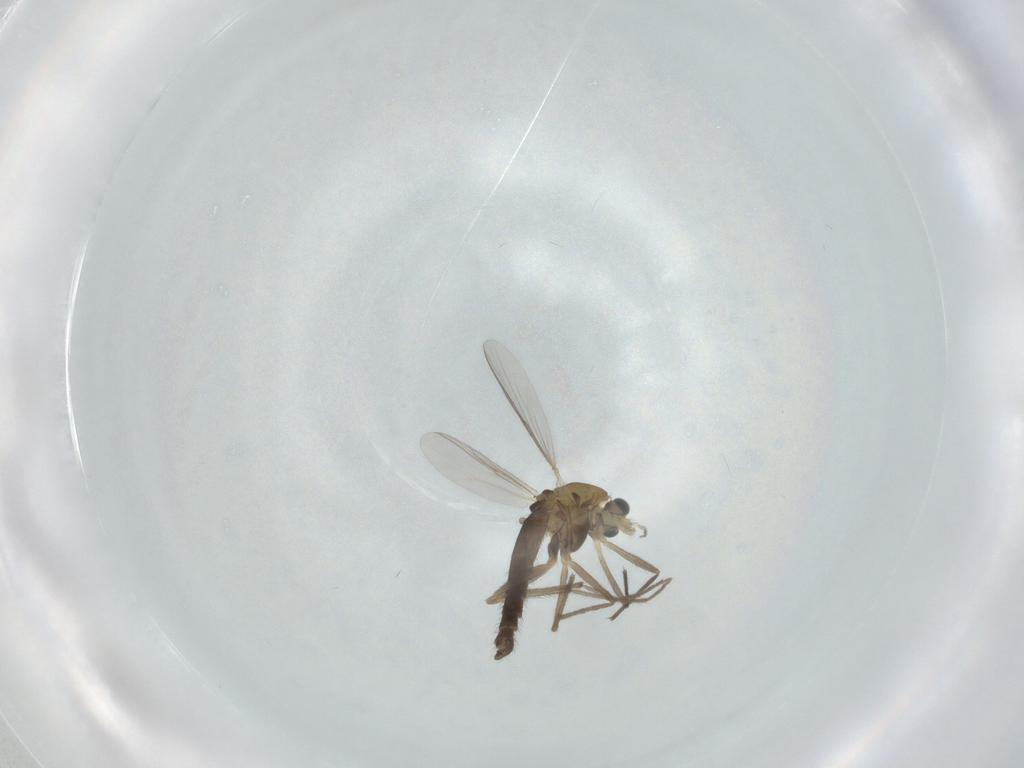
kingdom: Animalia
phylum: Arthropoda
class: Insecta
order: Diptera
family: Chironomidae
